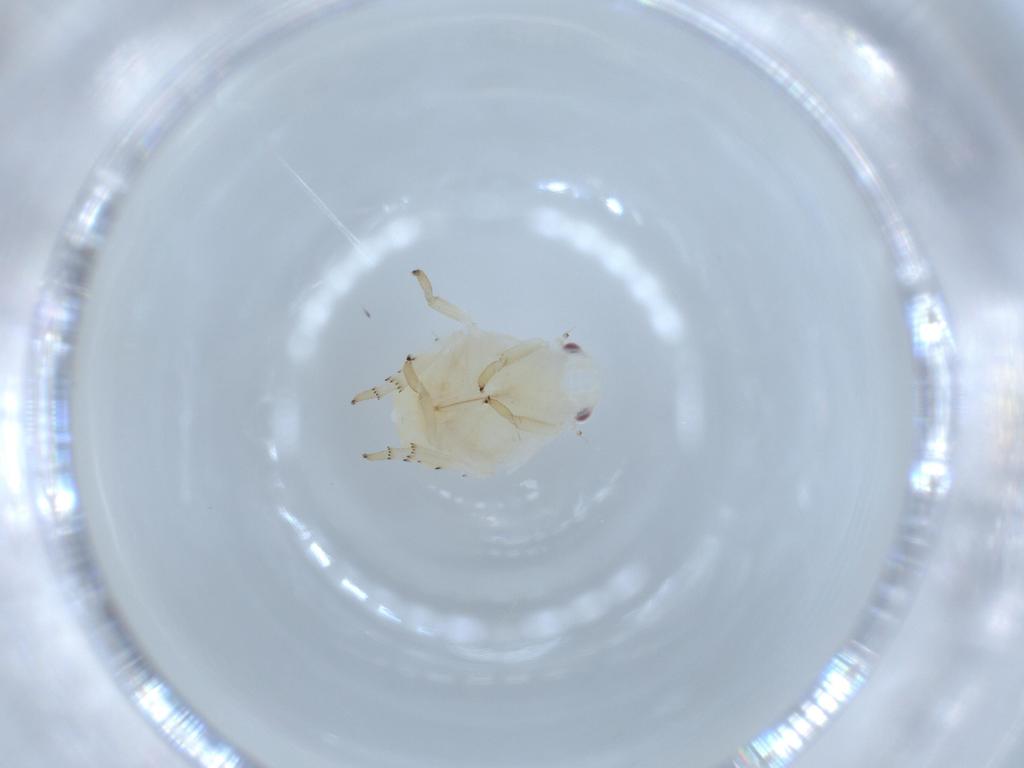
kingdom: Animalia
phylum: Arthropoda
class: Insecta
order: Hemiptera
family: Flatidae
